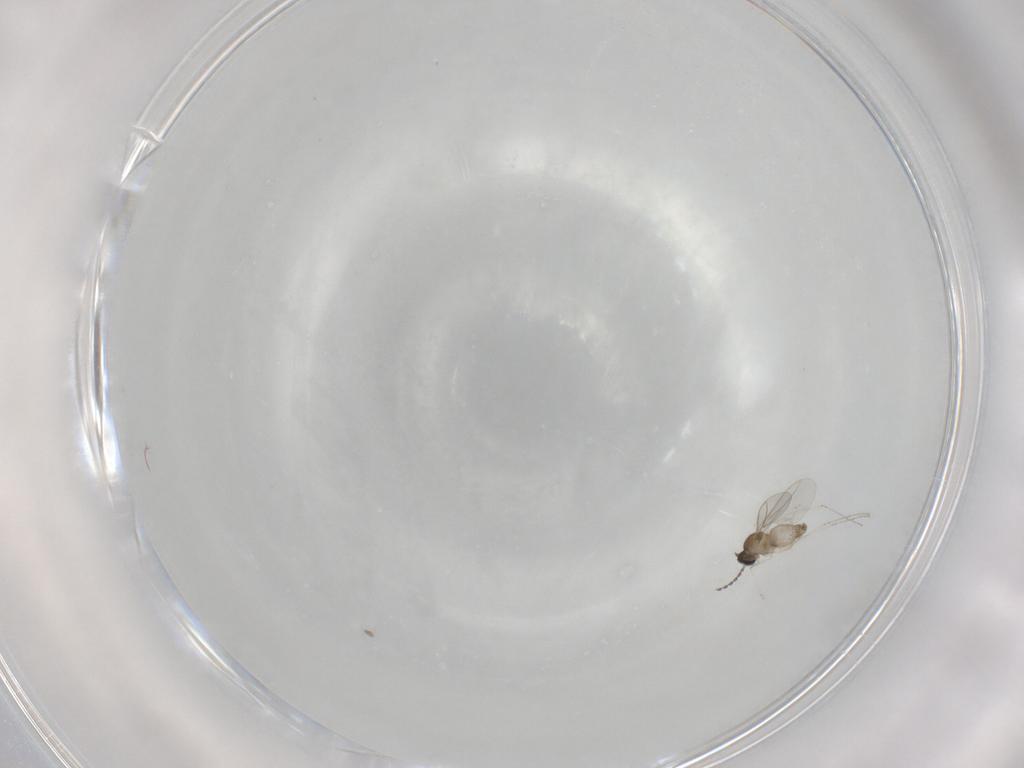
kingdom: Animalia
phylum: Arthropoda
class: Insecta
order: Diptera
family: Cecidomyiidae
